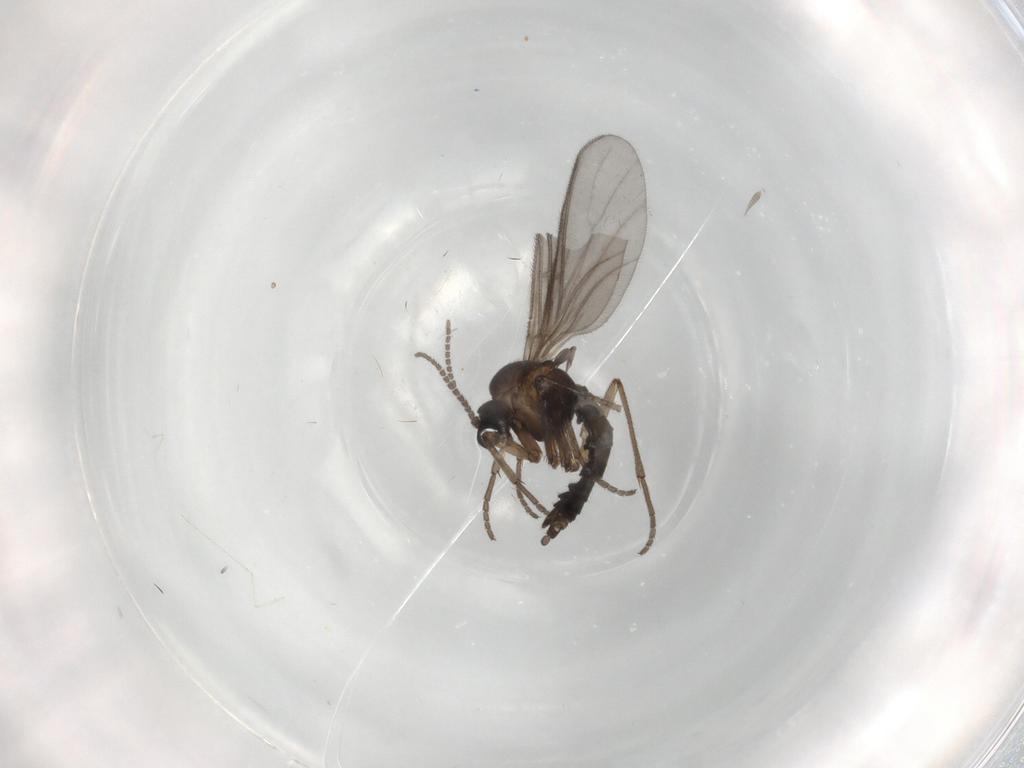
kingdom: Animalia
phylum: Arthropoda
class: Insecta
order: Diptera
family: Sciaridae
